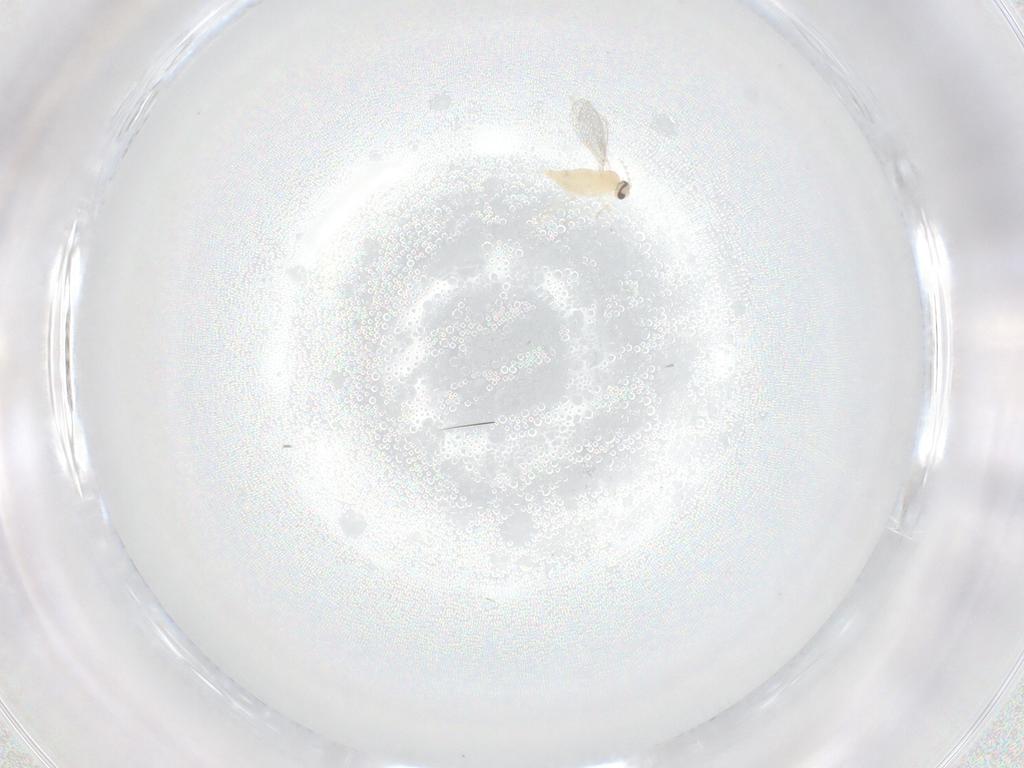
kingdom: Animalia
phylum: Arthropoda
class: Insecta
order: Diptera
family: Cecidomyiidae
